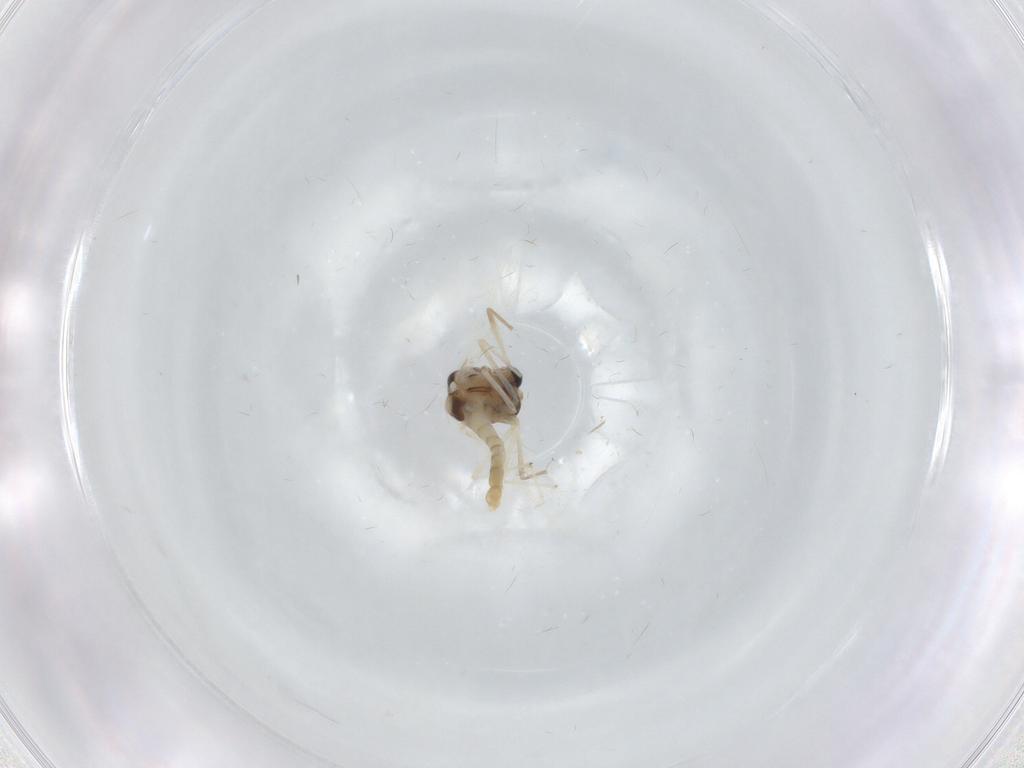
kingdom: Animalia
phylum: Arthropoda
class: Insecta
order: Diptera
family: Chironomidae
